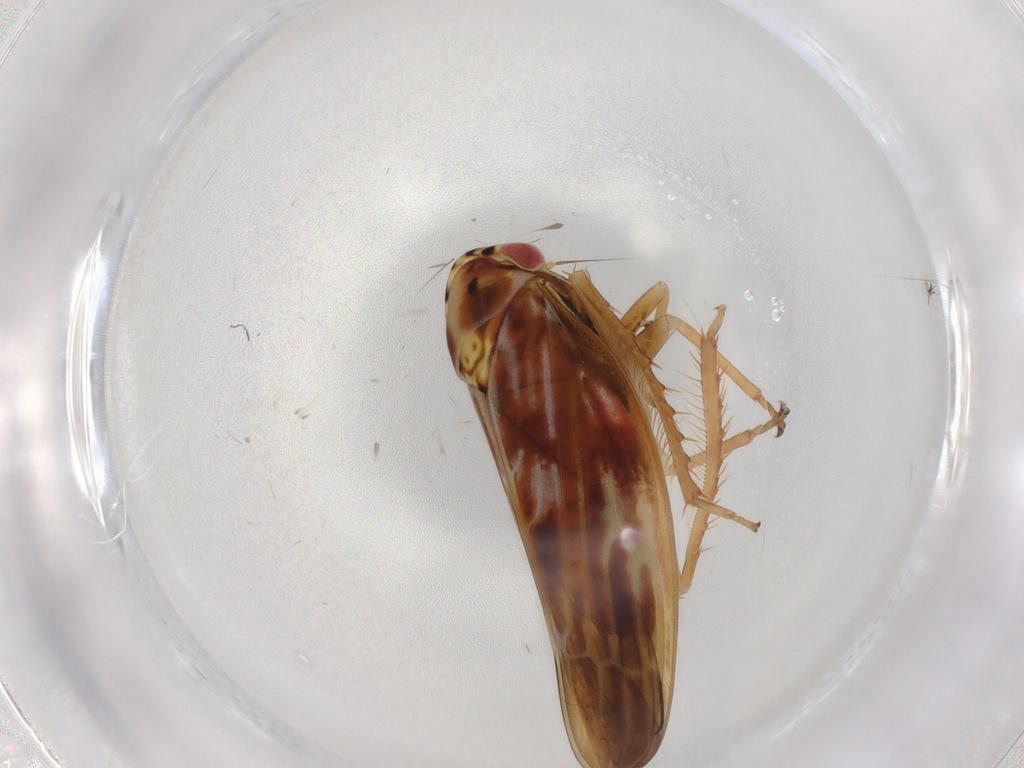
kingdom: Animalia
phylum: Arthropoda
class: Insecta
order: Hemiptera
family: Cicadellidae
